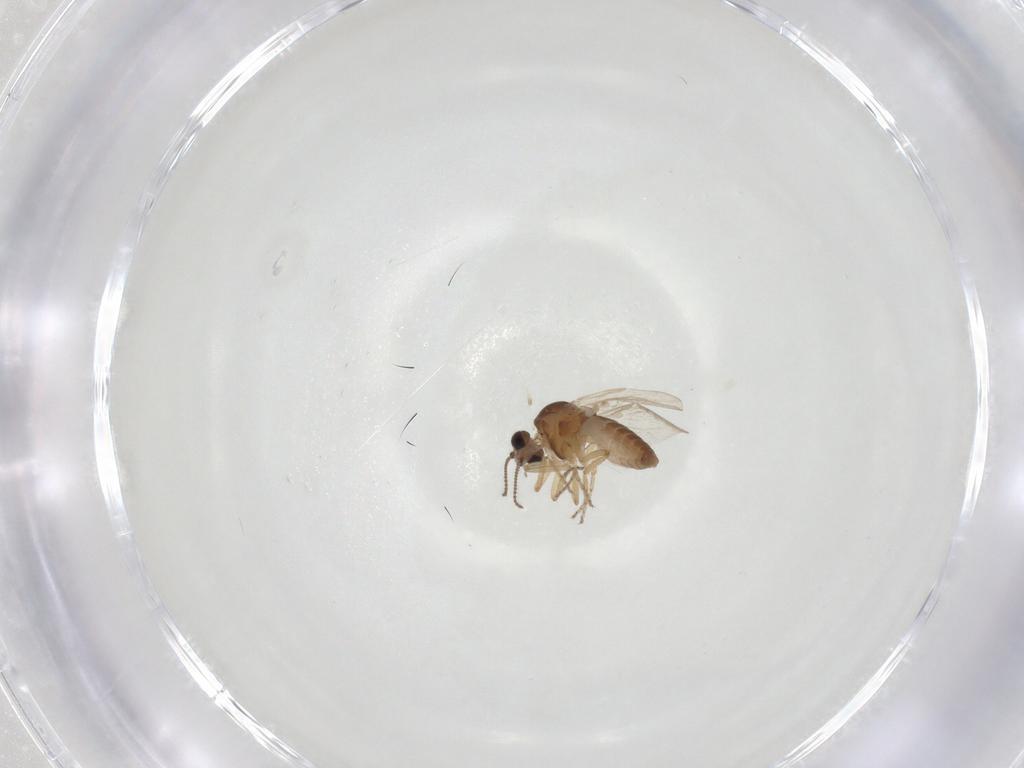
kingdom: Animalia
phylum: Arthropoda
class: Insecta
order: Diptera
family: Ceratopogonidae
